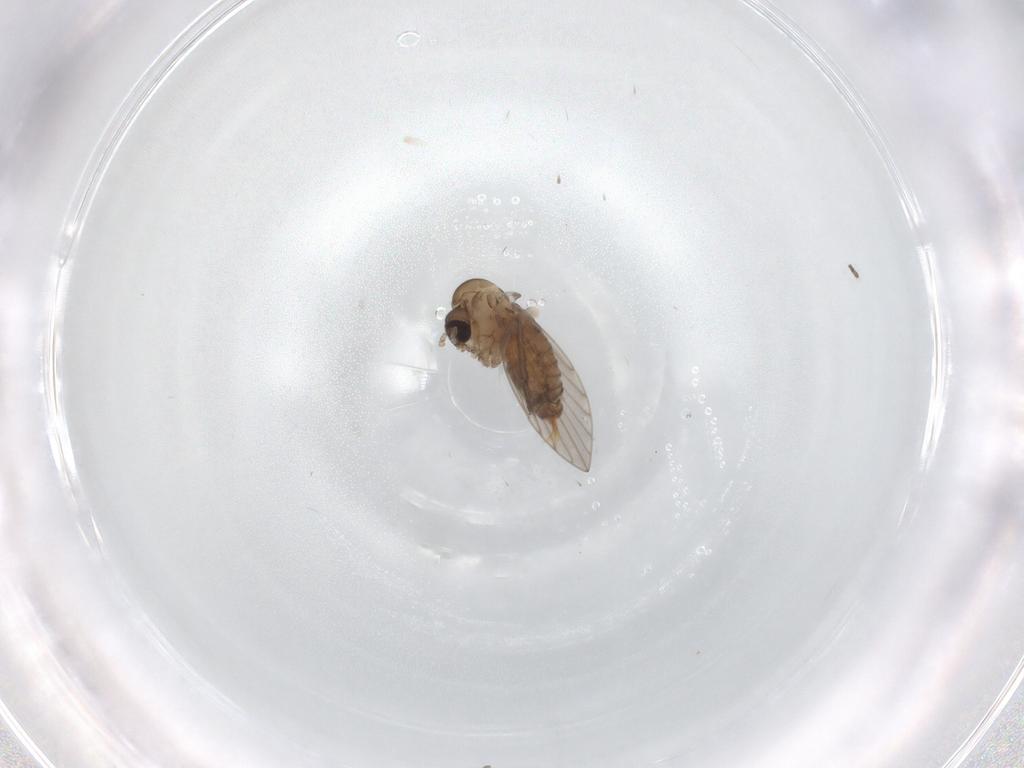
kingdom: Animalia
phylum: Arthropoda
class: Insecta
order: Diptera
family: Psychodidae
